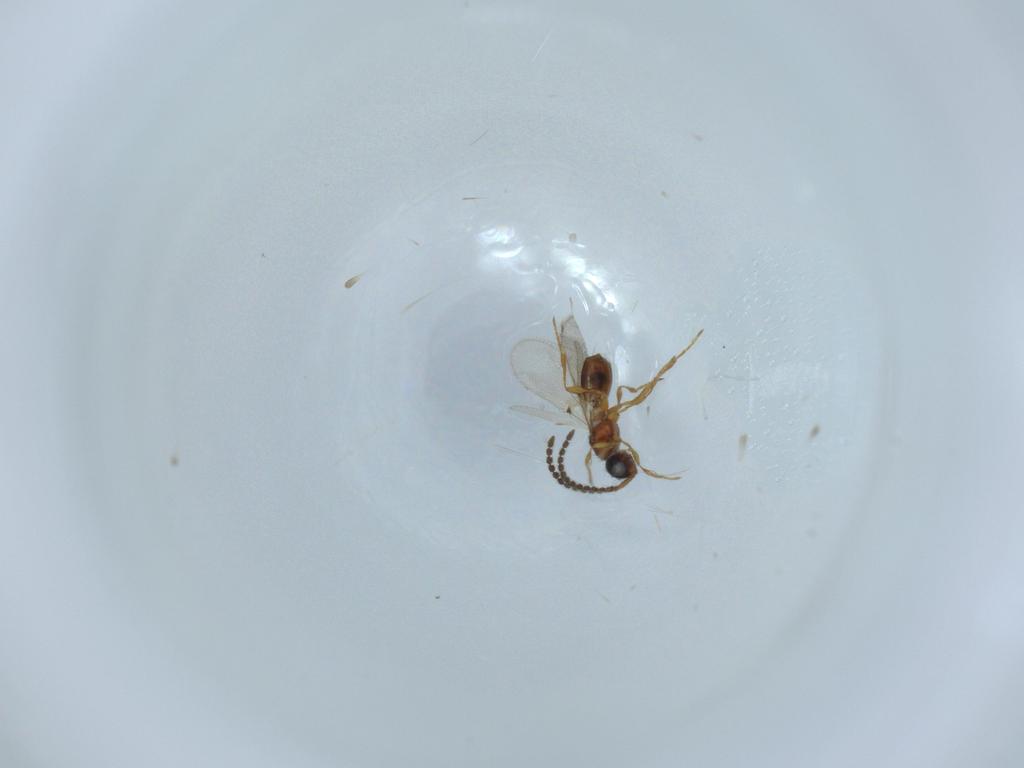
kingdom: Animalia
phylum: Arthropoda
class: Insecta
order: Hymenoptera
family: Diapriidae
